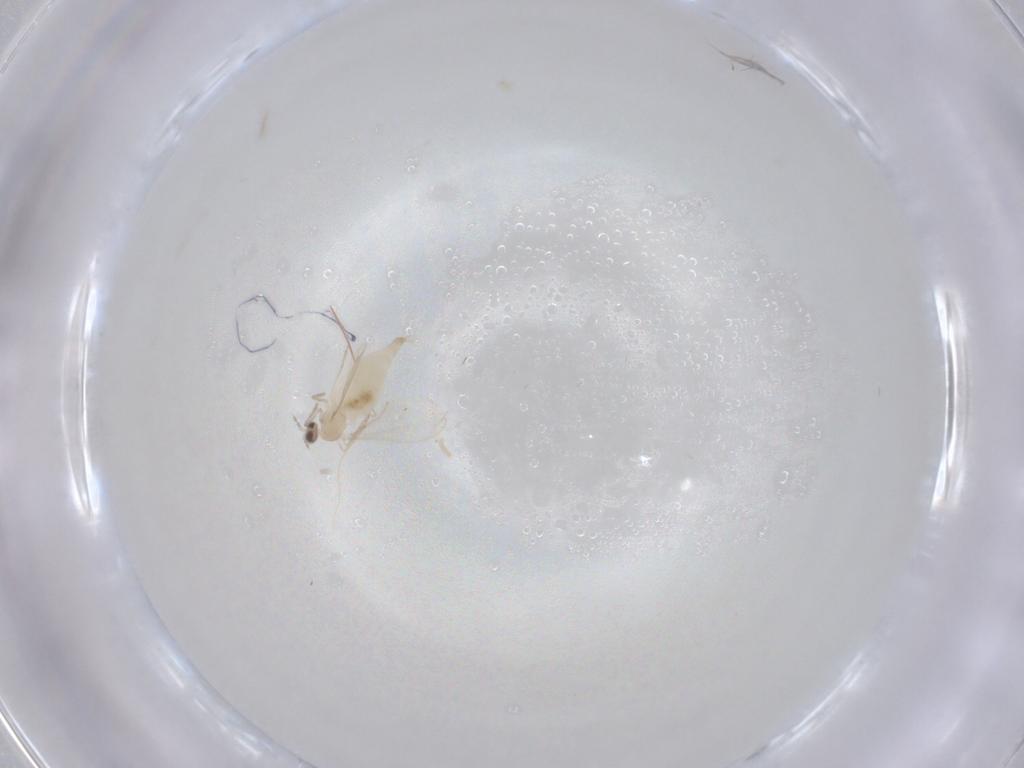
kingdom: Animalia
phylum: Arthropoda
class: Insecta
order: Diptera
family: Cecidomyiidae
